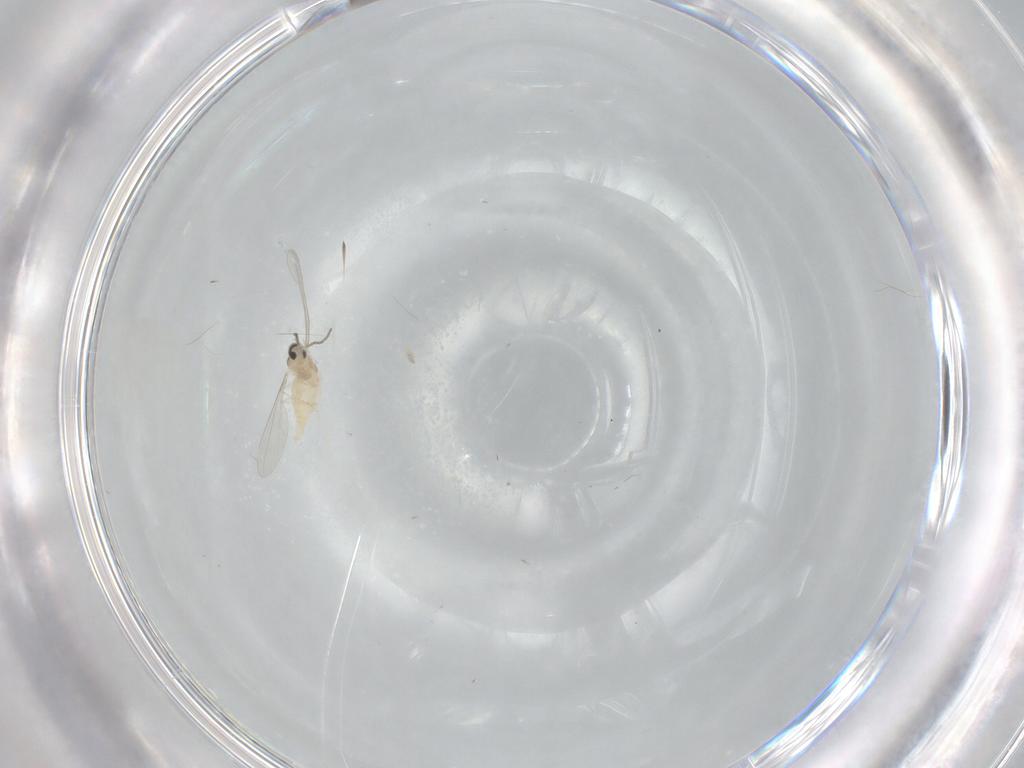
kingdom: Animalia
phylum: Arthropoda
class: Insecta
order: Diptera
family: Cecidomyiidae
